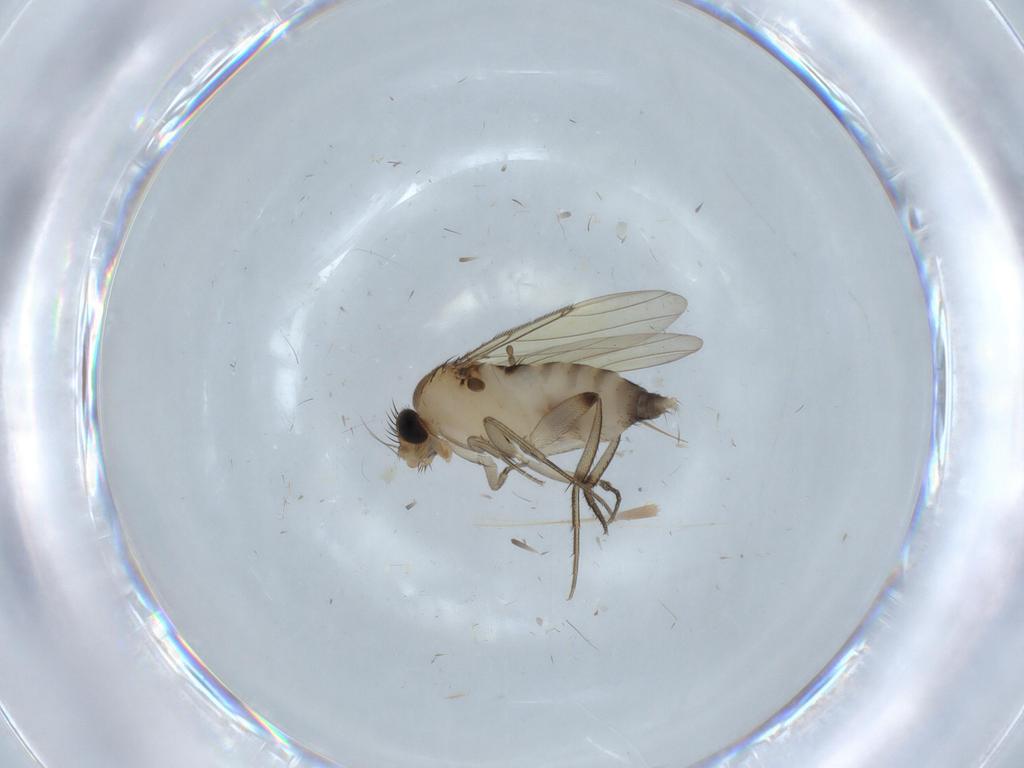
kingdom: Animalia
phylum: Arthropoda
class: Insecta
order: Diptera
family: Phoridae
